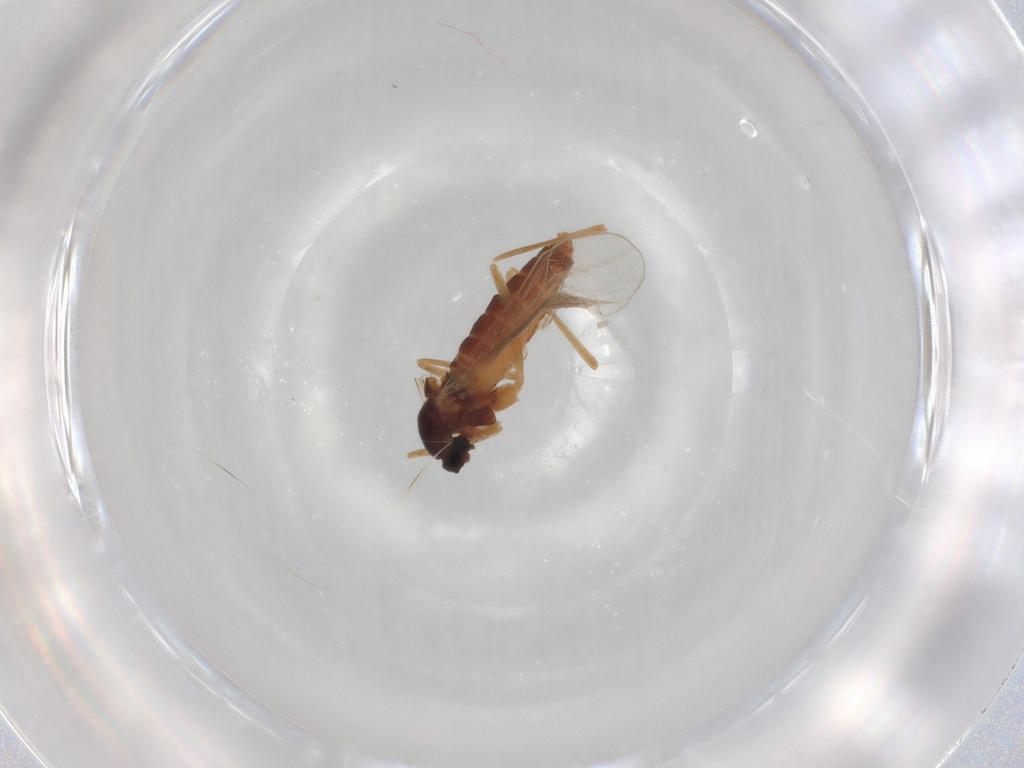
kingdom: Animalia
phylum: Arthropoda
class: Insecta
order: Diptera
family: Cecidomyiidae
